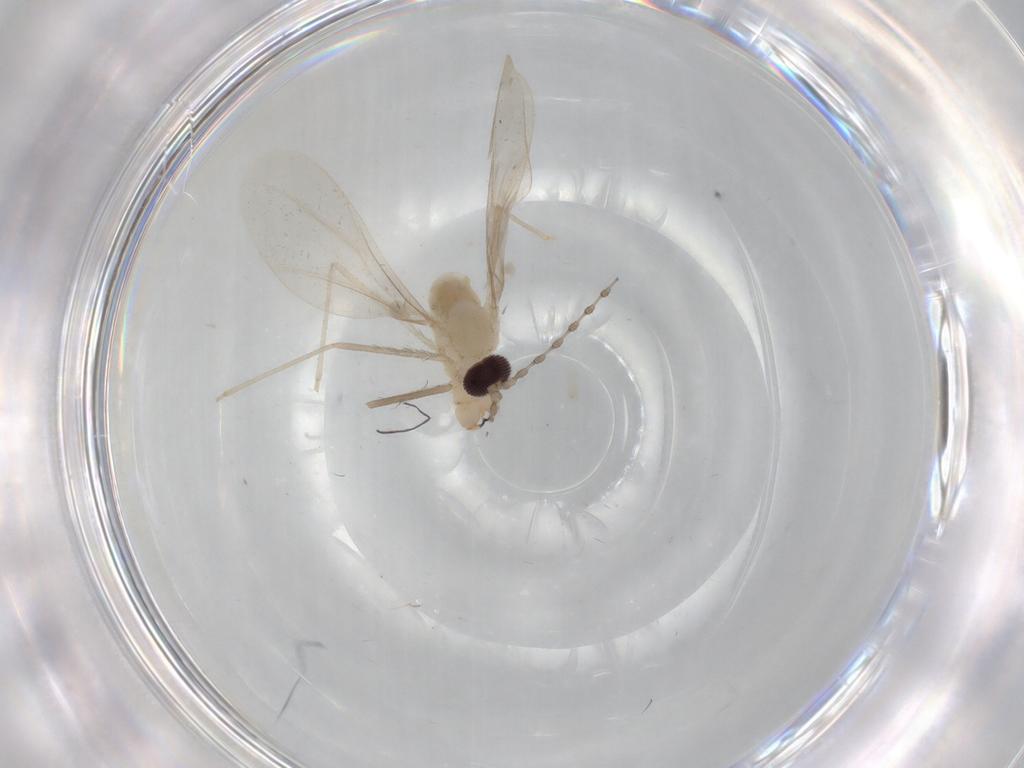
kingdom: Animalia
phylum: Arthropoda
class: Insecta
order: Diptera
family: Cecidomyiidae
